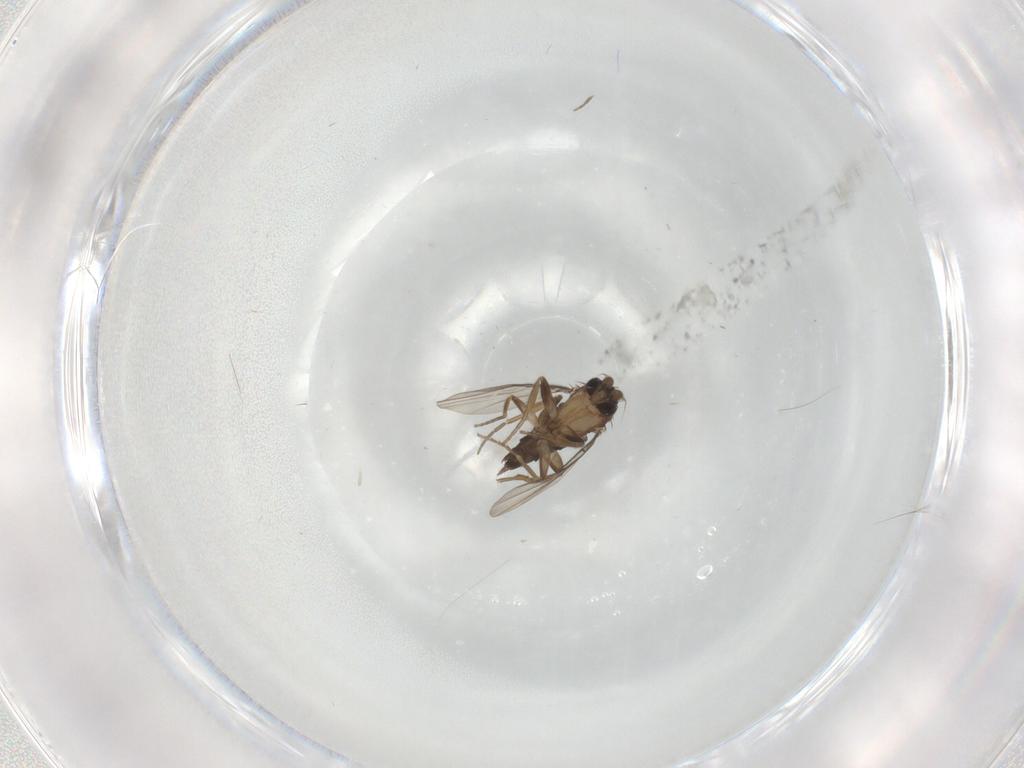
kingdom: Animalia
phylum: Arthropoda
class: Insecta
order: Diptera
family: Phoridae
